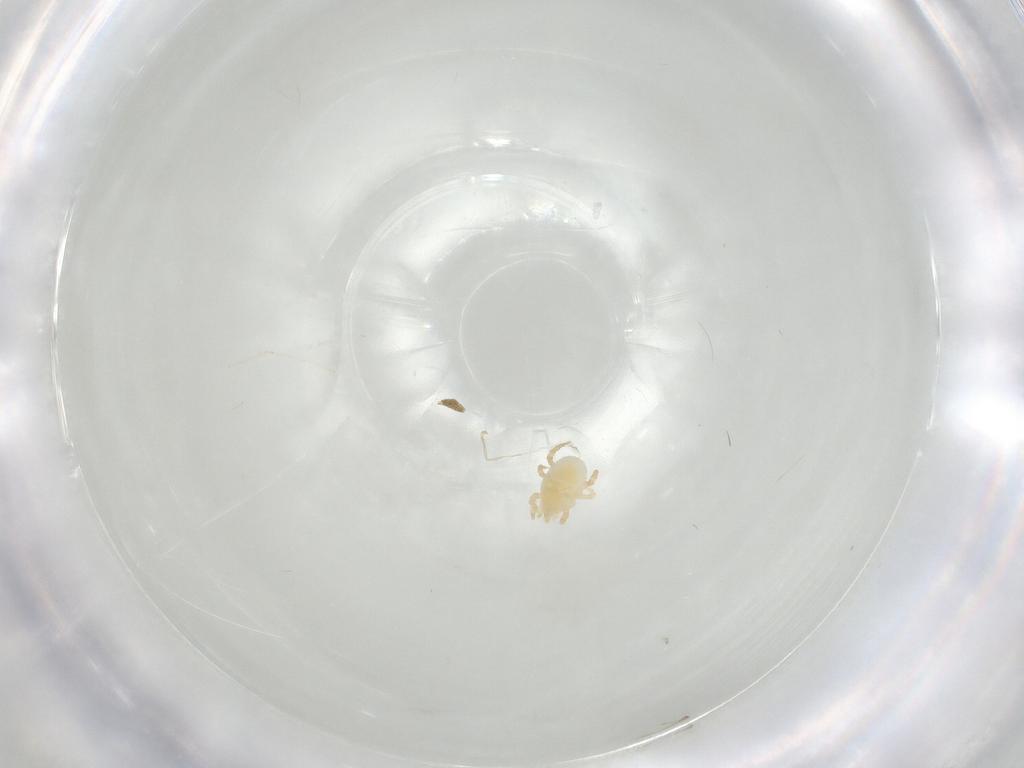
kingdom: Animalia
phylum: Arthropoda
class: Arachnida
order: Mesostigmata
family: Parasitidae
